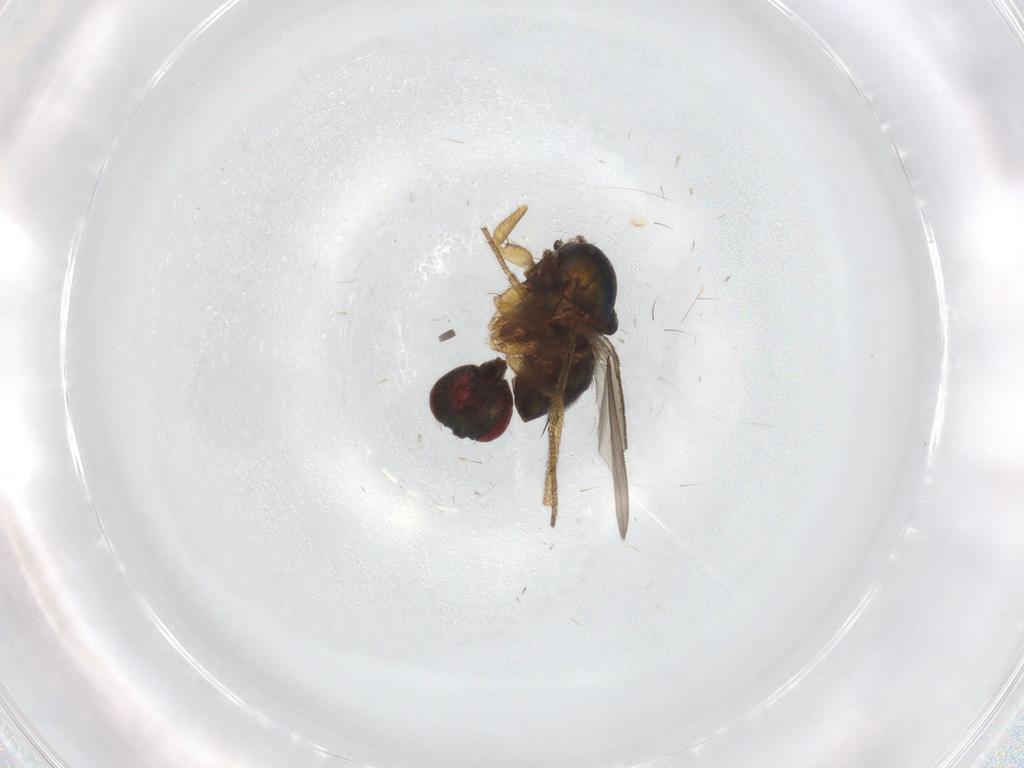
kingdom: Animalia
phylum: Arthropoda
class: Insecta
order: Diptera
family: Cecidomyiidae
